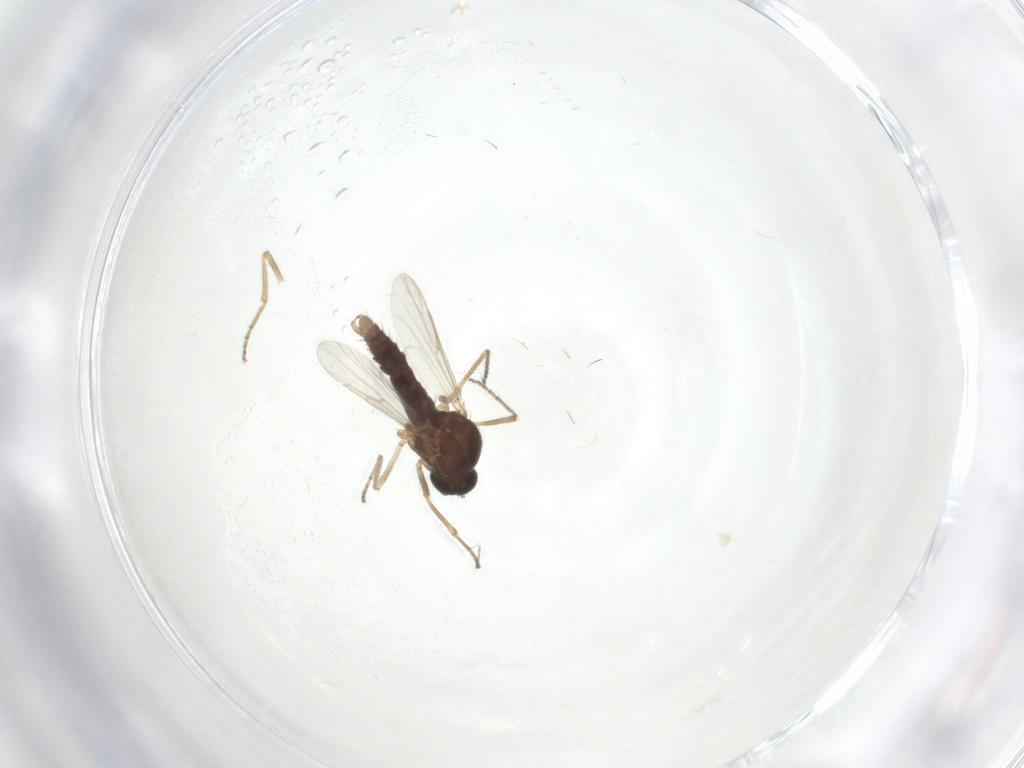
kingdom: Animalia
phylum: Arthropoda
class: Insecta
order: Diptera
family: Ceratopogonidae
